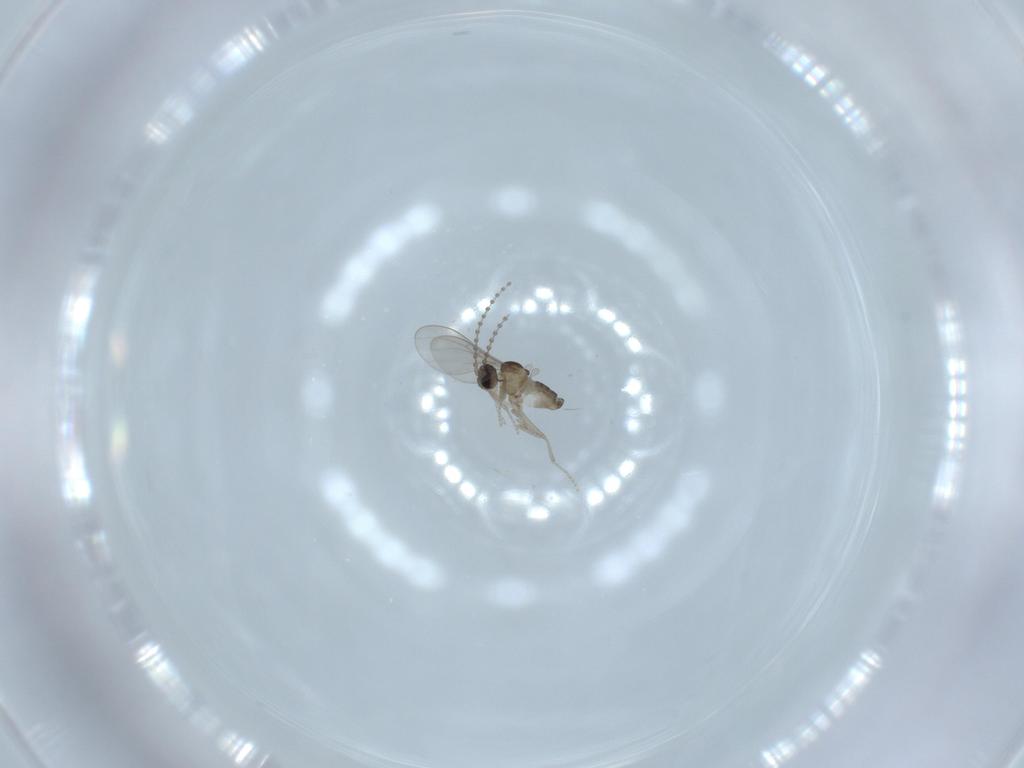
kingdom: Animalia
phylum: Arthropoda
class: Insecta
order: Diptera
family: Cecidomyiidae
